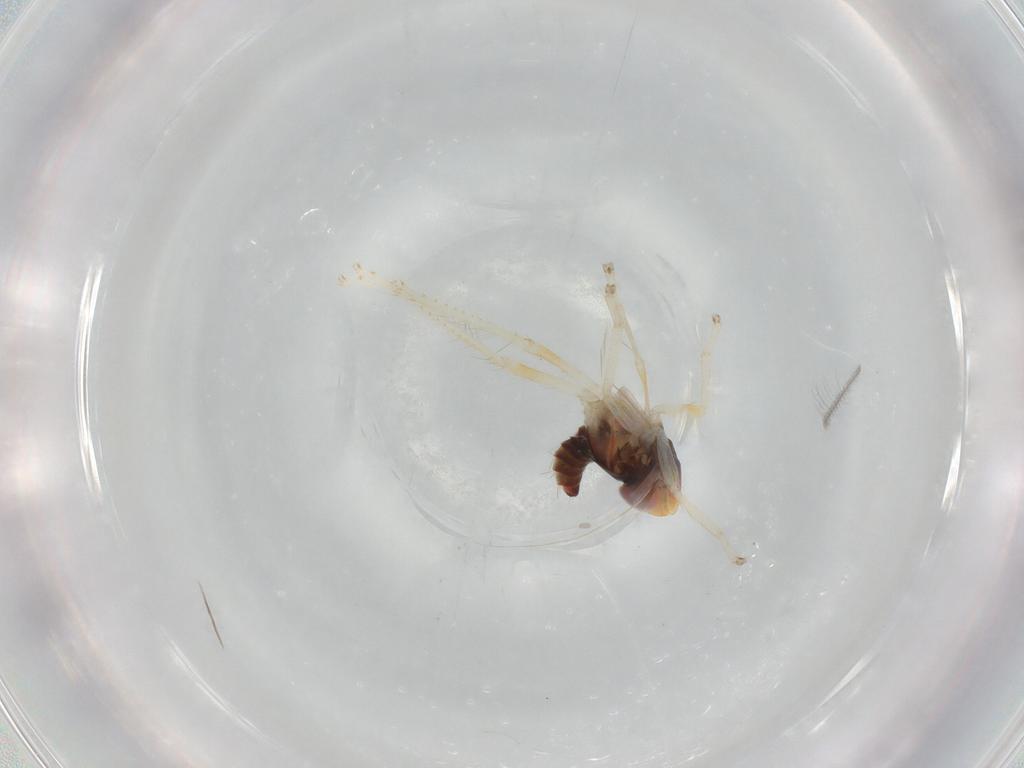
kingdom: Animalia
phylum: Arthropoda
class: Insecta
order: Hemiptera
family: Cicadellidae
